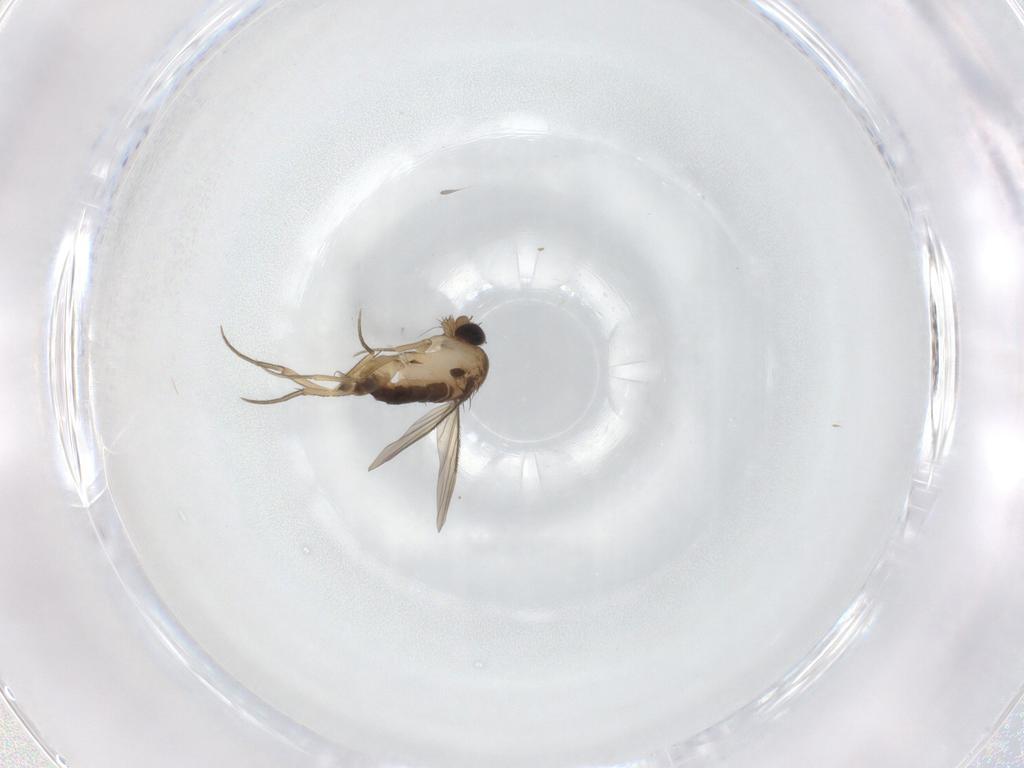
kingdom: Animalia
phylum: Arthropoda
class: Insecta
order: Diptera
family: Phoridae
